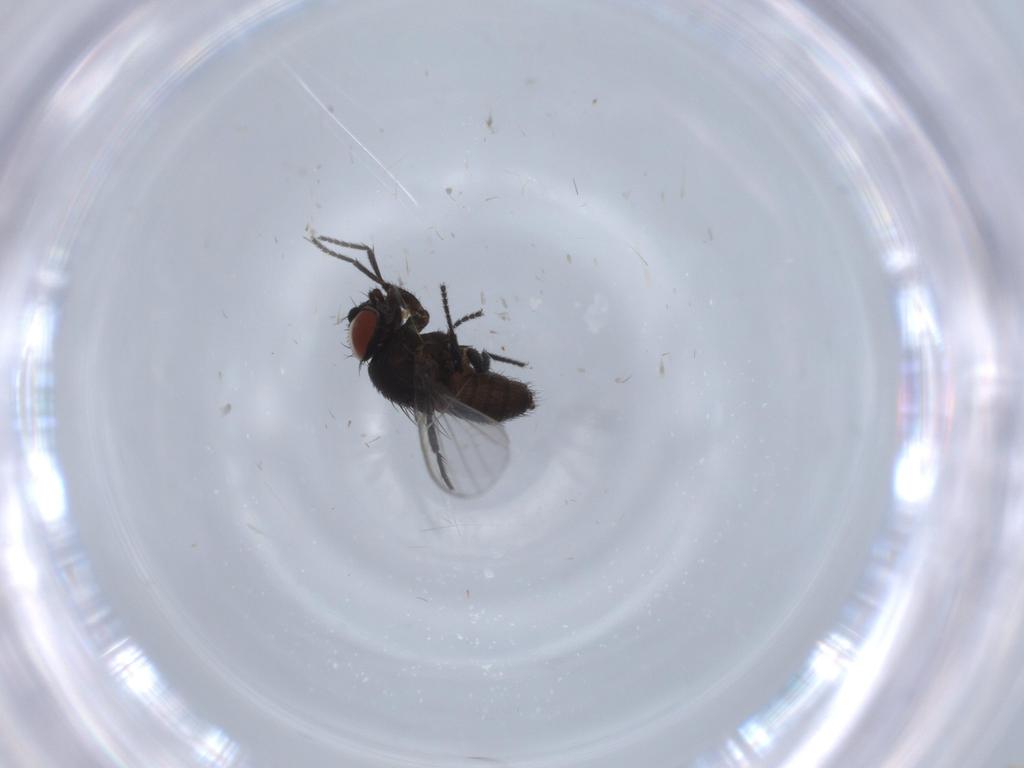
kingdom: Animalia
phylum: Arthropoda
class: Insecta
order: Diptera
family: Milichiidae
